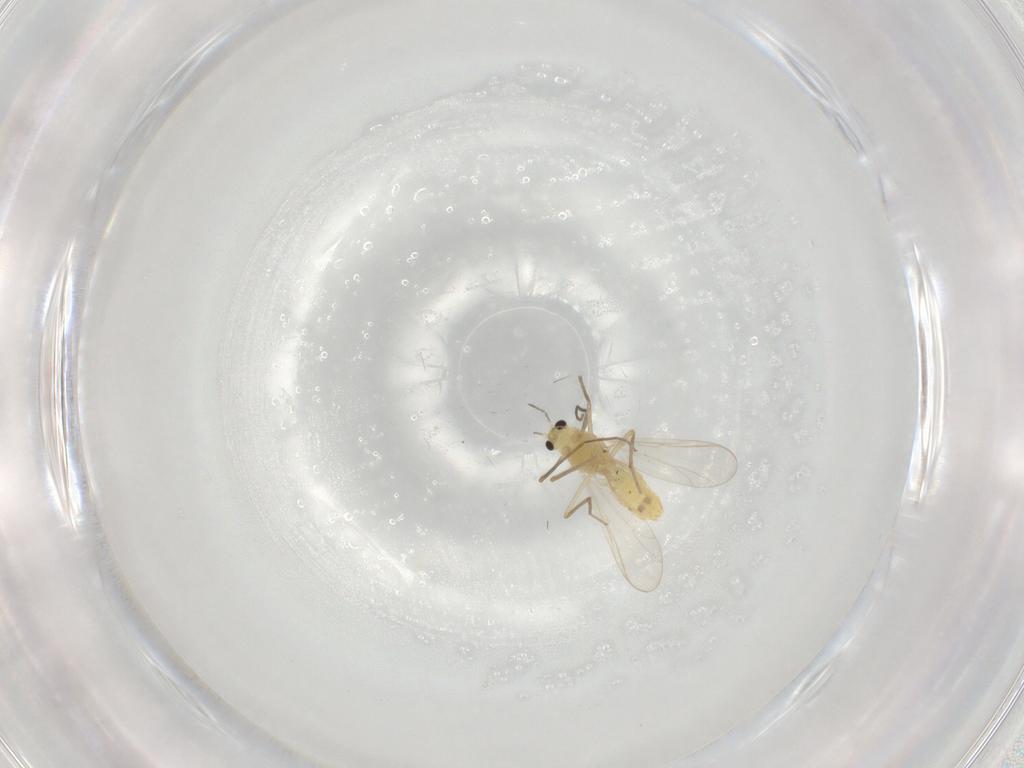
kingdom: Animalia
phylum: Arthropoda
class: Insecta
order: Diptera
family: Chironomidae
